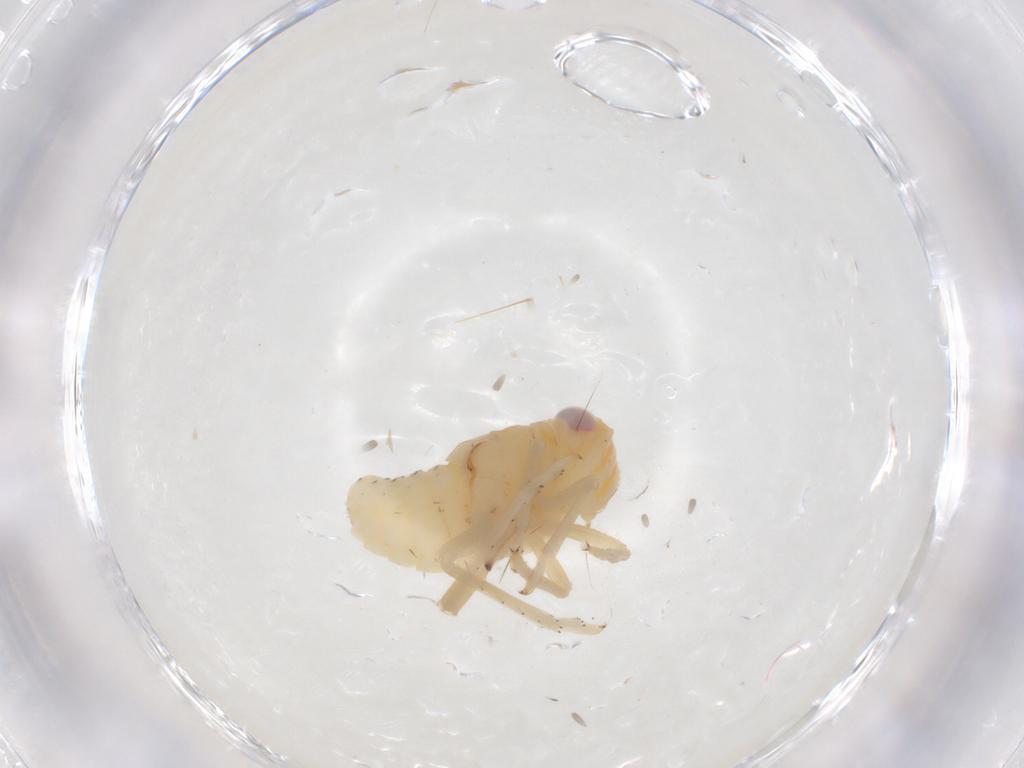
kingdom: Animalia
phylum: Arthropoda
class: Insecta
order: Hemiptera
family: Tropiduchidae
